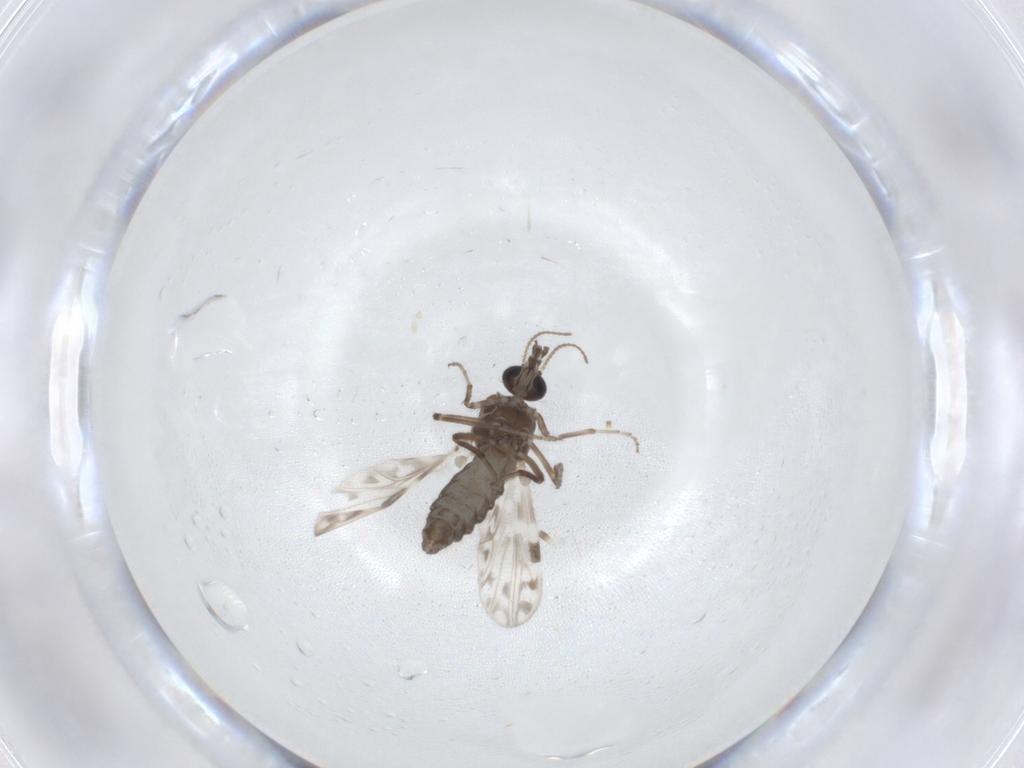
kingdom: Animalia
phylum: Arthropoda
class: Insecta
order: Diptera
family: Ceratopogonidae
